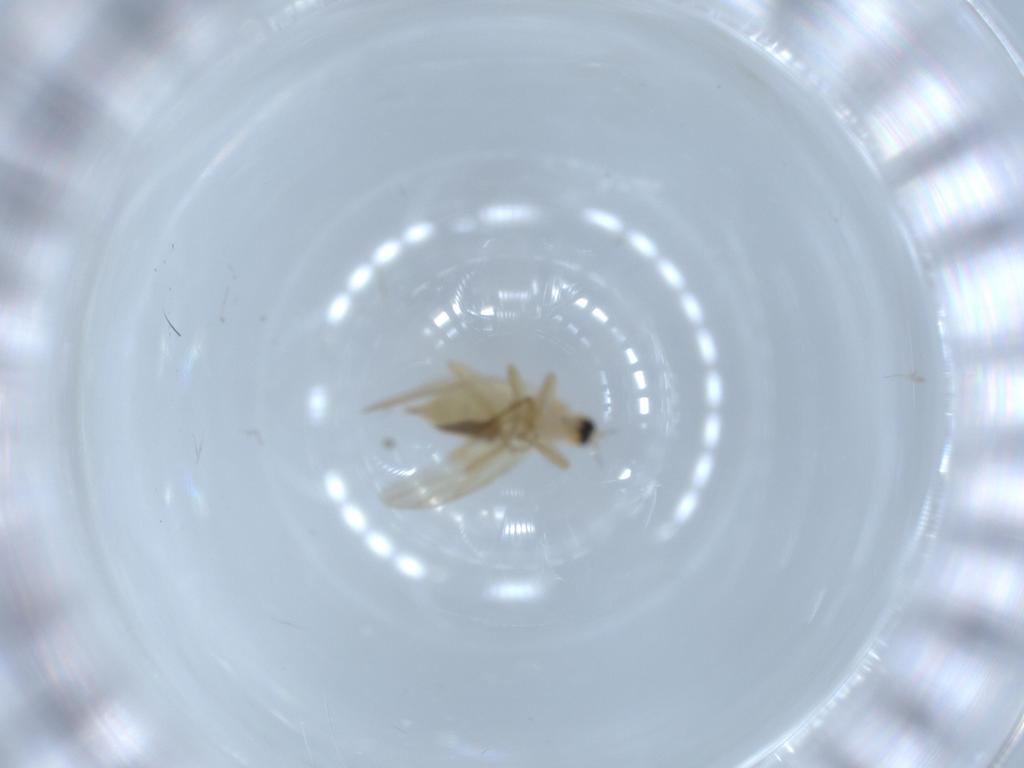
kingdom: Animalia
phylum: Arthropoda
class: Insecta
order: Diptera
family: Hybotidae
